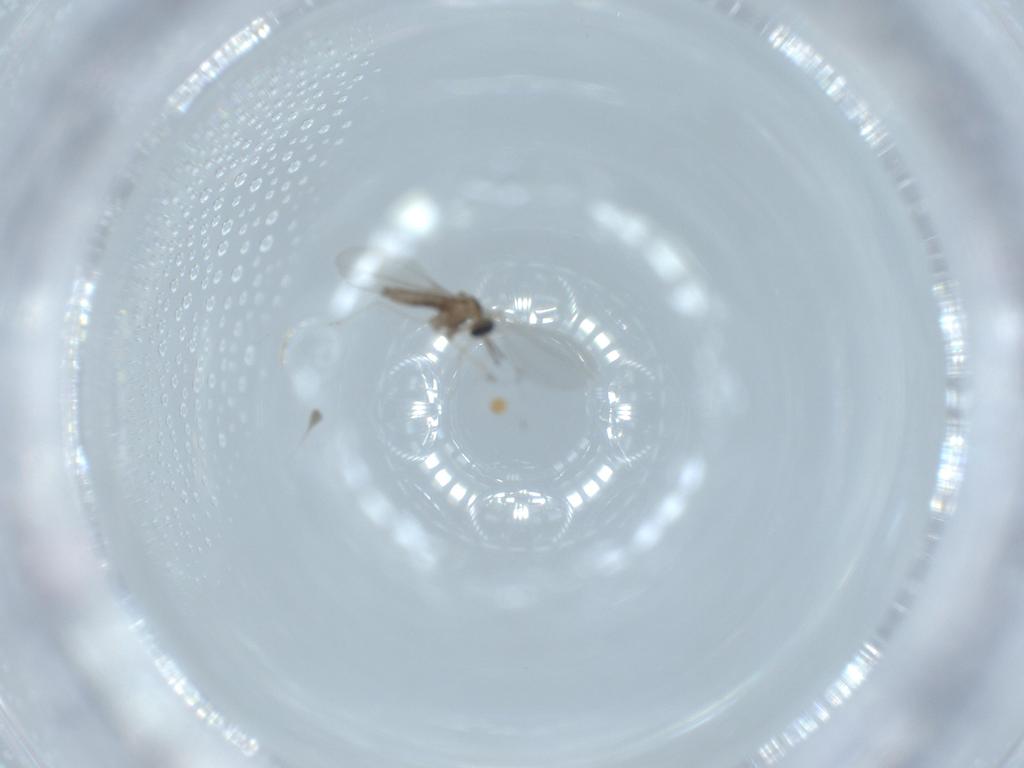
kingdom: Animalia
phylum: Arthropoda
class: Insecta
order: Diptera
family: Cecidomyiidae
